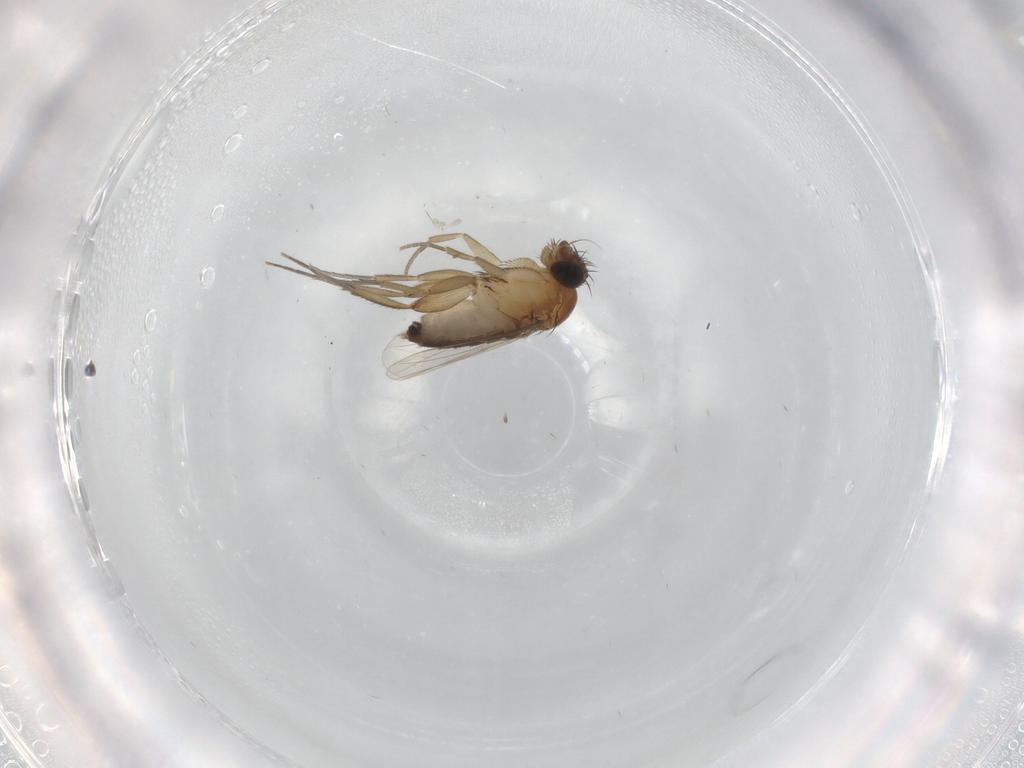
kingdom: Animalia
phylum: Arthropoda
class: Insecta
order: Diptera
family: Phoridae
